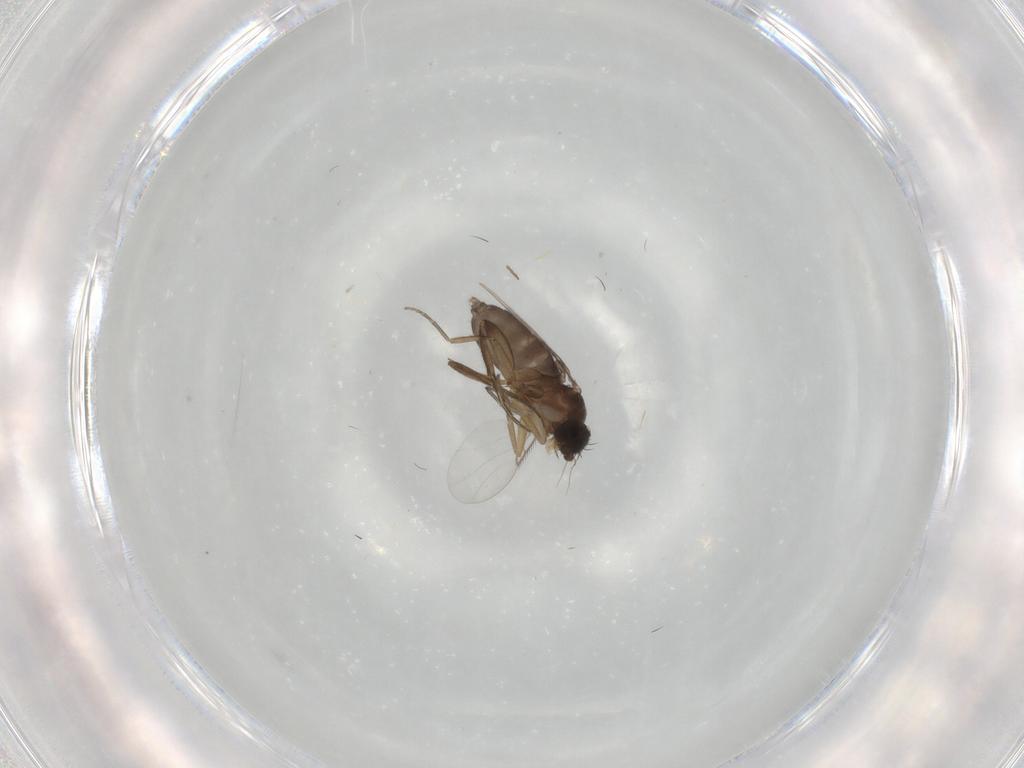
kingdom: Animalia
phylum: Arthropoda
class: Insecta
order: Diptera
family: Phoridae
